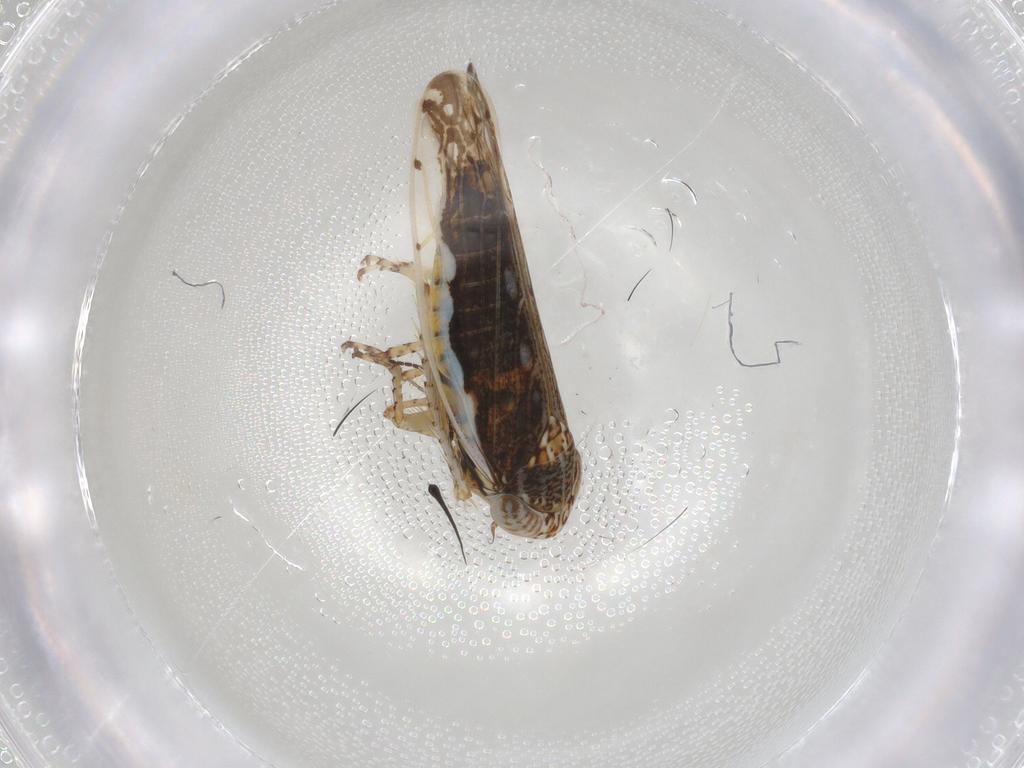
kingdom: Animalia
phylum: Arthropoda
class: Insecta
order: Hemiptera
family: Cicadellidae
